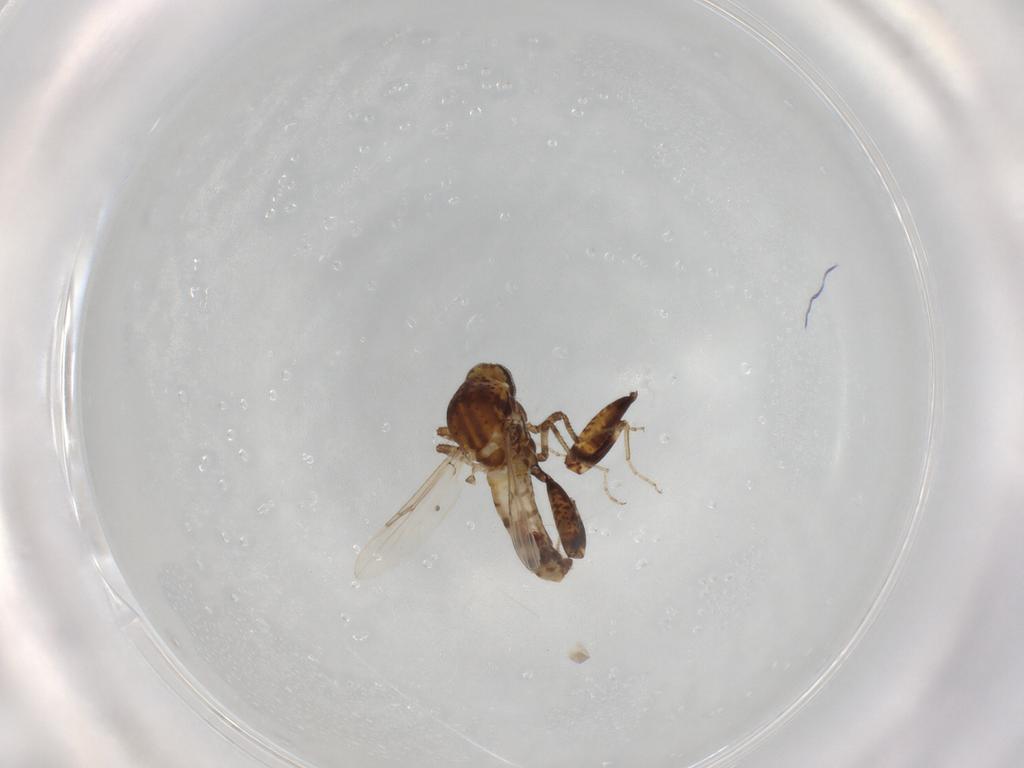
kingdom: Animalia
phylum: Arthropoda
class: Insecta
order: Diptera
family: Ceratopogonidae
